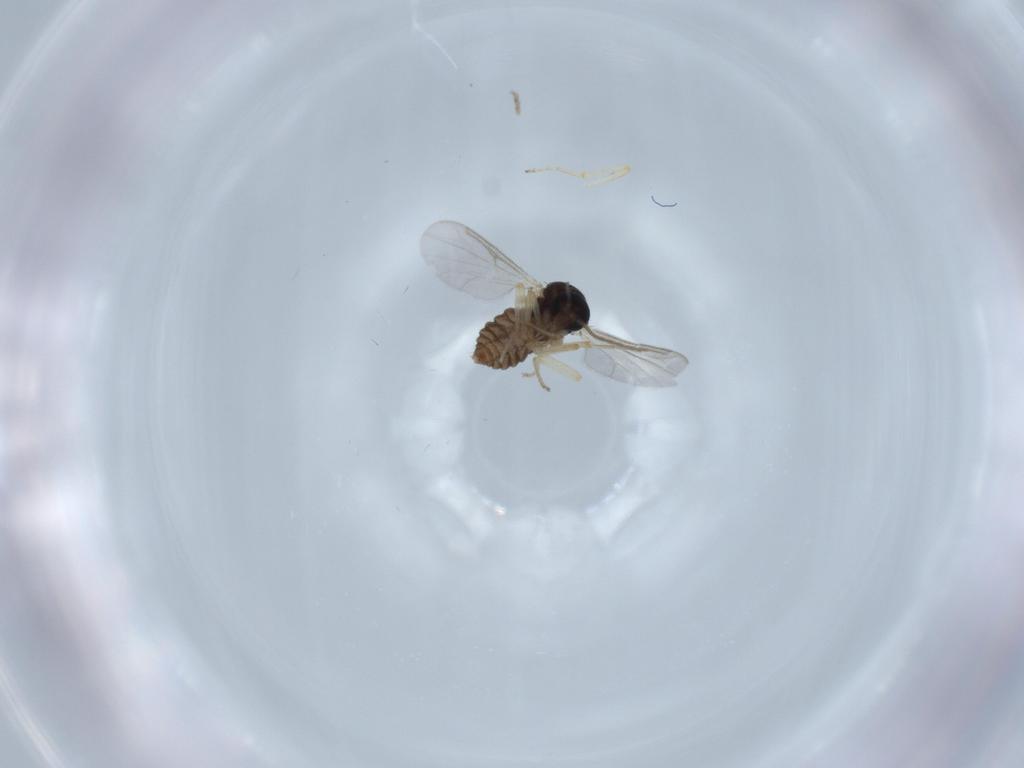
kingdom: Animalia
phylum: Arthropoda
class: Insecta
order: Diptera
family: Ceratopogonidae
